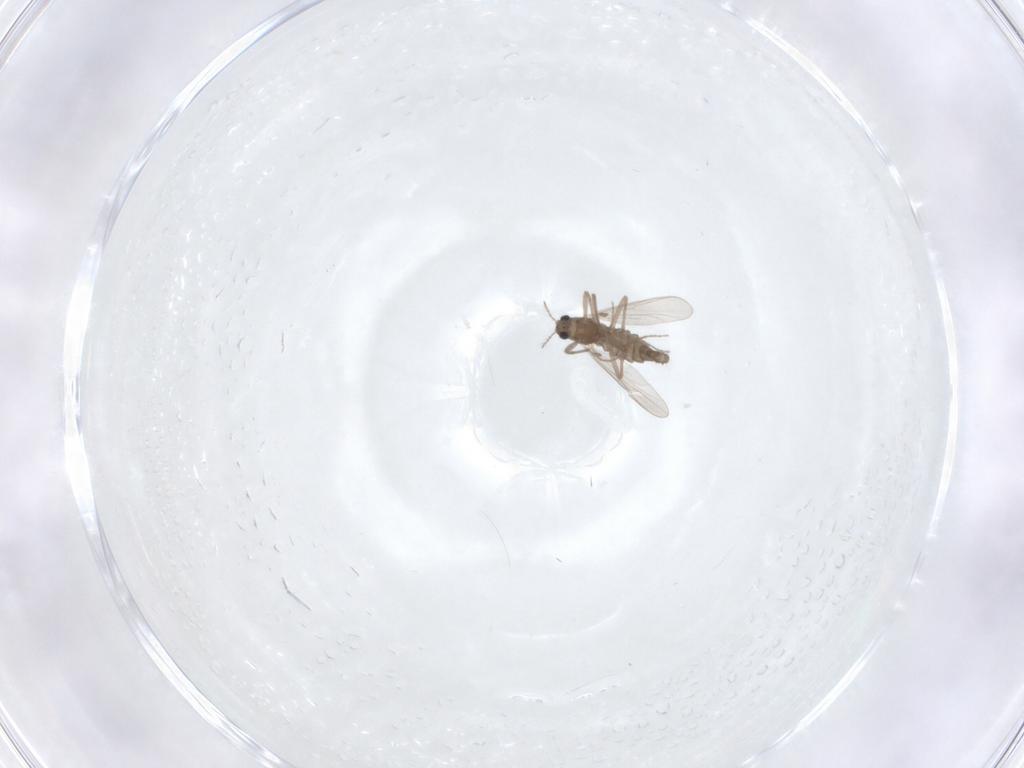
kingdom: Animalia
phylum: Arthropoda
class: Insecta
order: Diptera
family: Chironomidae
